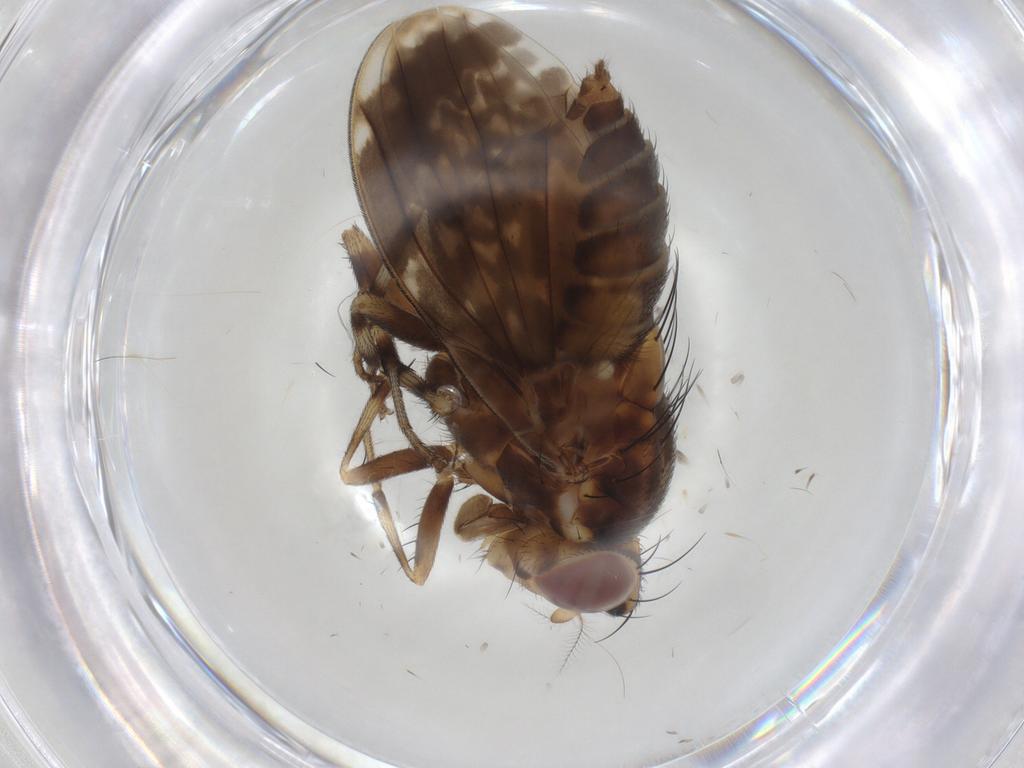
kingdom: Animalia
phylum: Arthropoda
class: Insecta
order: Diptera
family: Lauxaniidae
